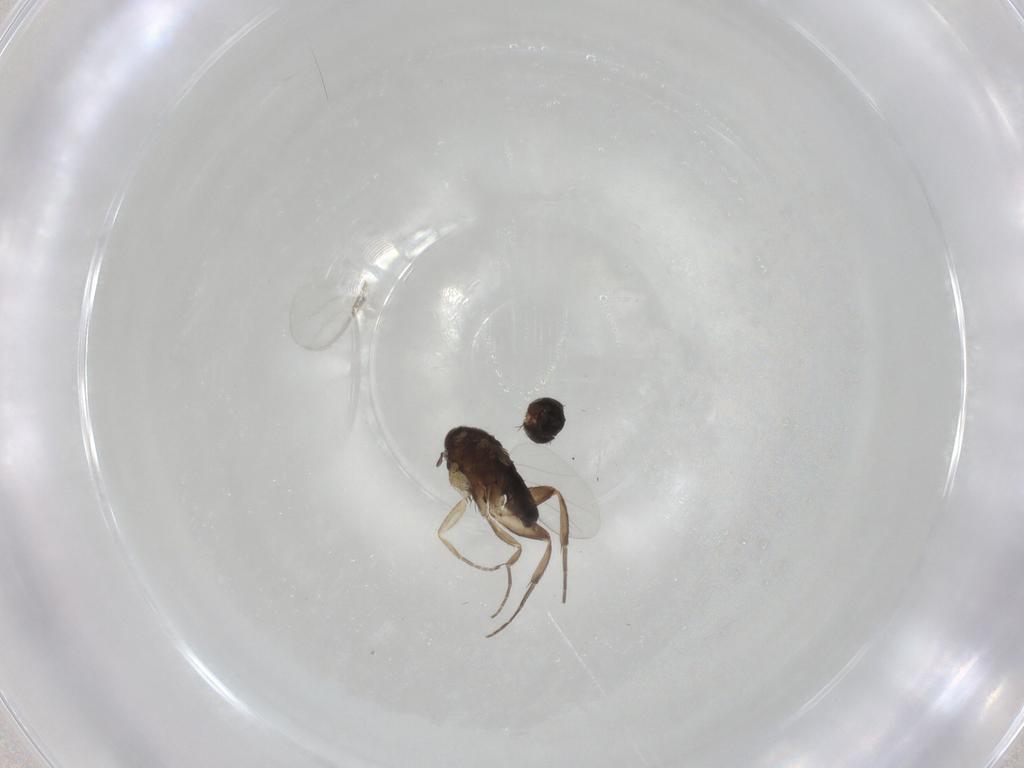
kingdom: Animalia
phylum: Arthropoda
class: Insecta
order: Diptera
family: Phoridae
